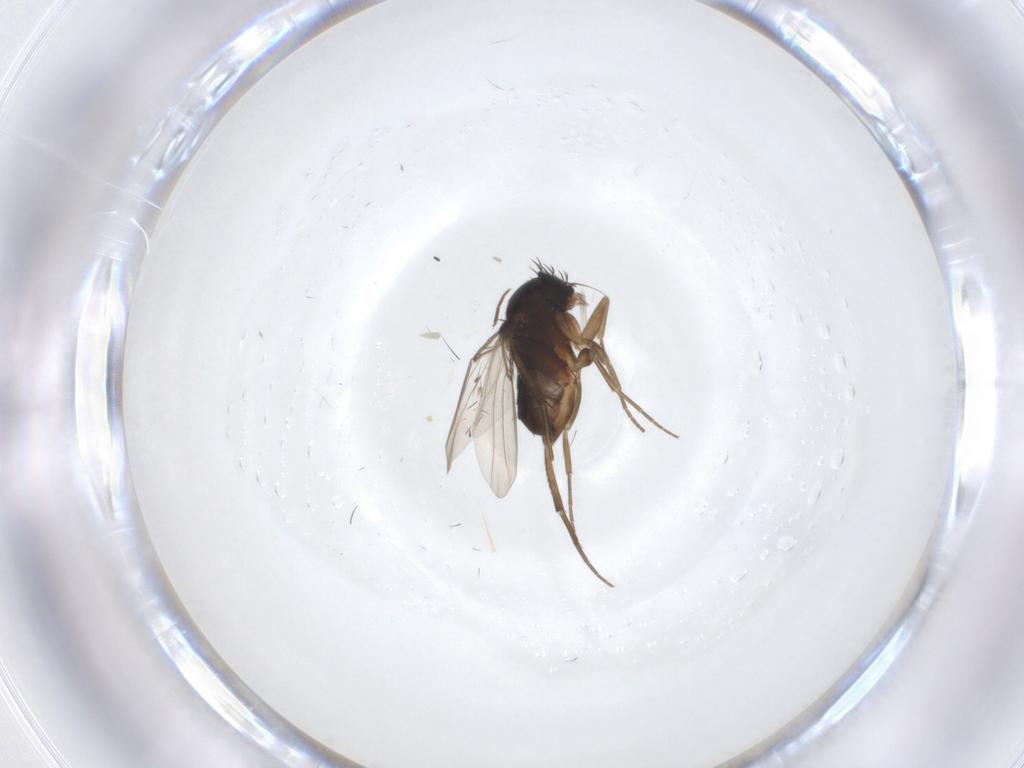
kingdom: Animalia
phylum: Arthropoda
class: Insecta
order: Diptera
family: Phoridae
